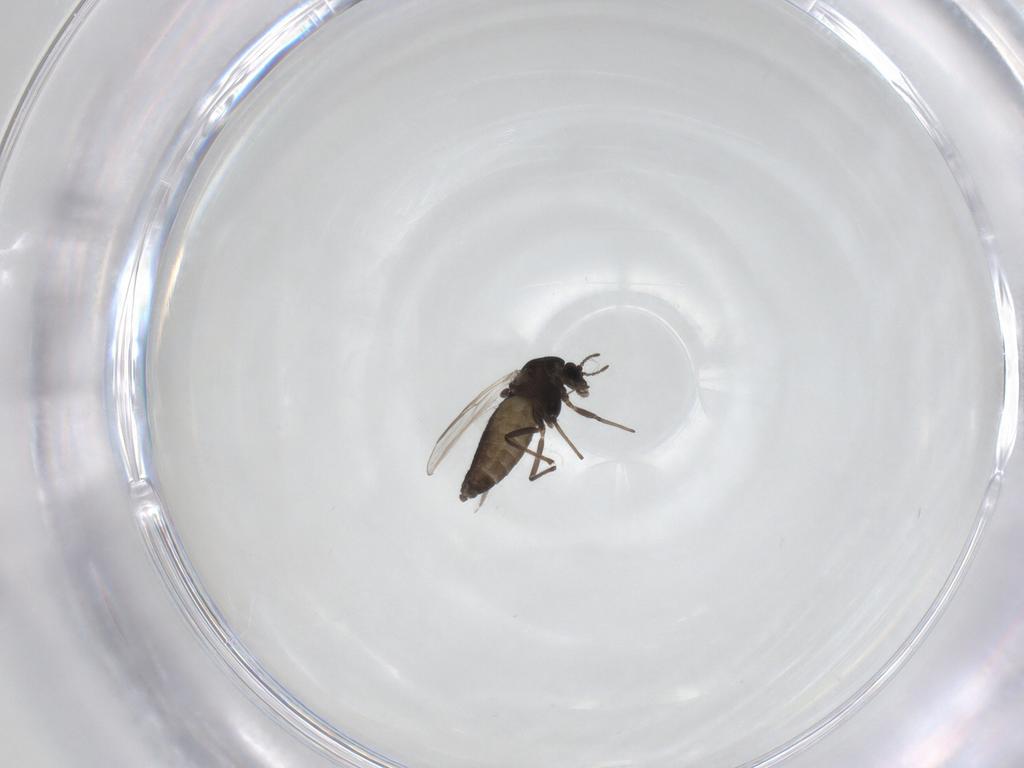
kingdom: Animalia
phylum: Arthropoda
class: Insecta
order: Diptera
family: Chironomidae
